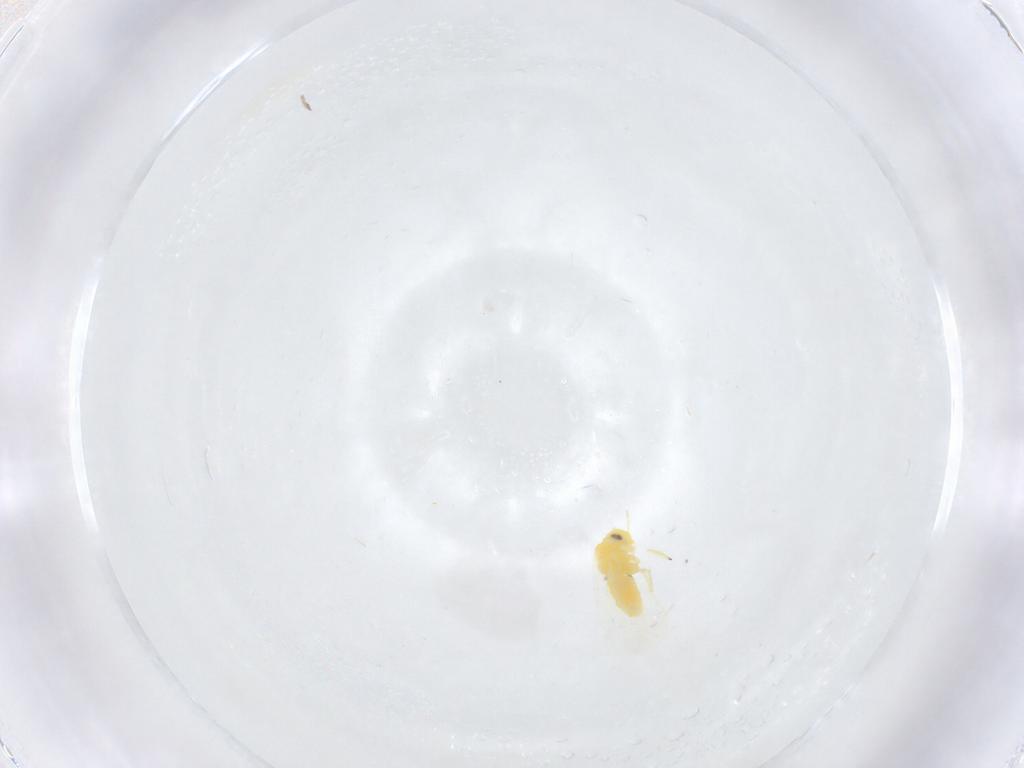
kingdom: Animalia
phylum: Arthropoda
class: Insecta
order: Hemiptera
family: Aleyrodidae
